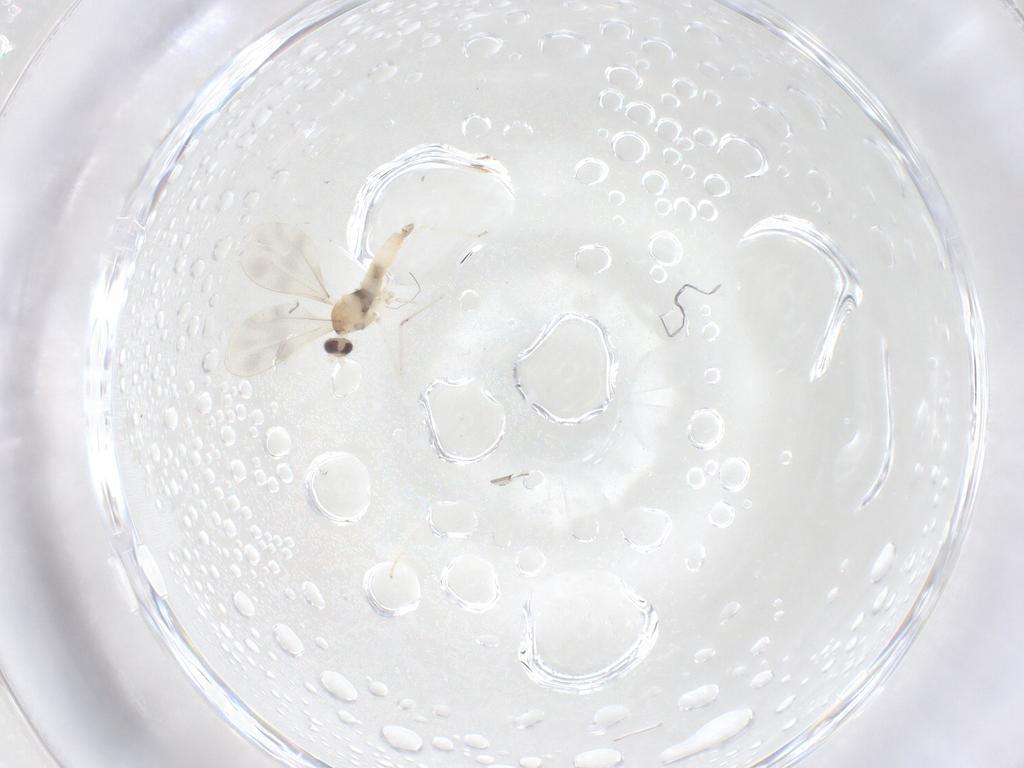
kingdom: Animalia
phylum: Arthropoda
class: Insecta
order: Diptera
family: Cecidomyiidae
